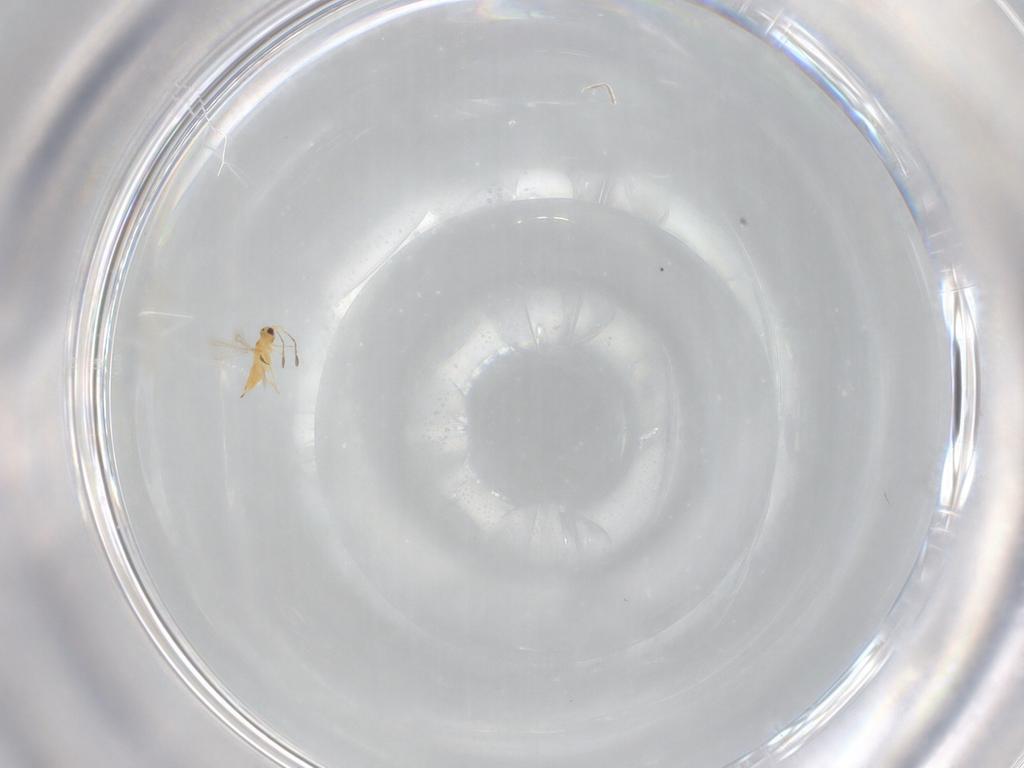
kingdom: Animalia
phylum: Arthropoda
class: Insecta
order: Hymenoptera
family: Mymaridae
